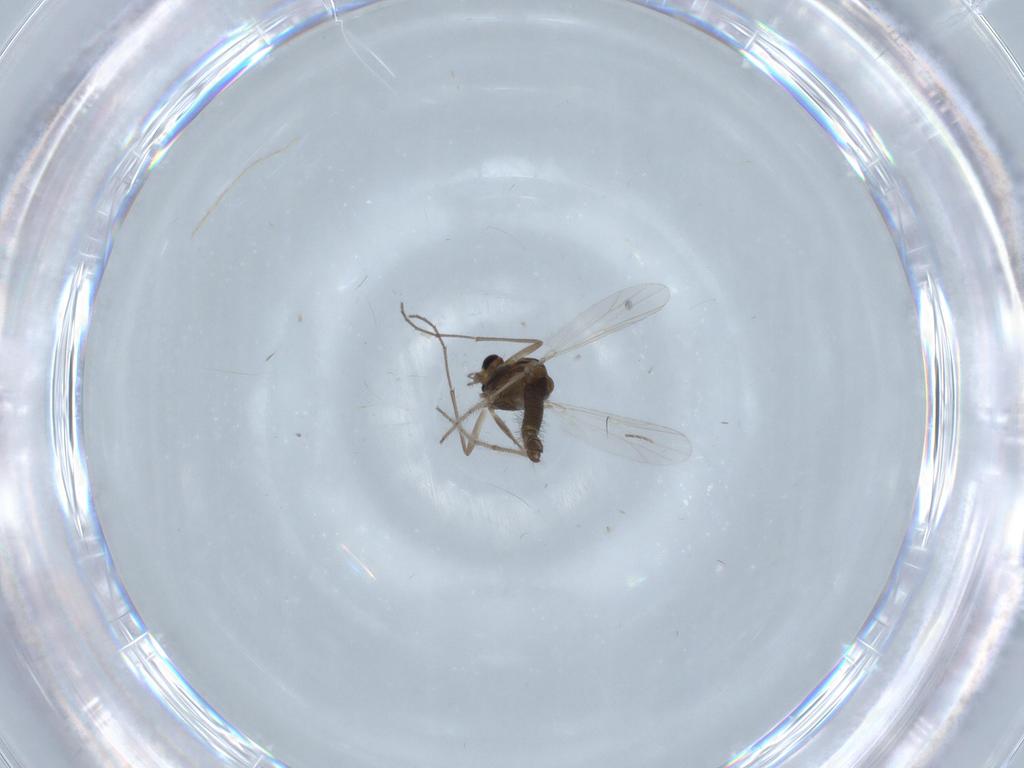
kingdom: Animalia
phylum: Arthropoda
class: Insecta
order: Diptera
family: Chironomidae
